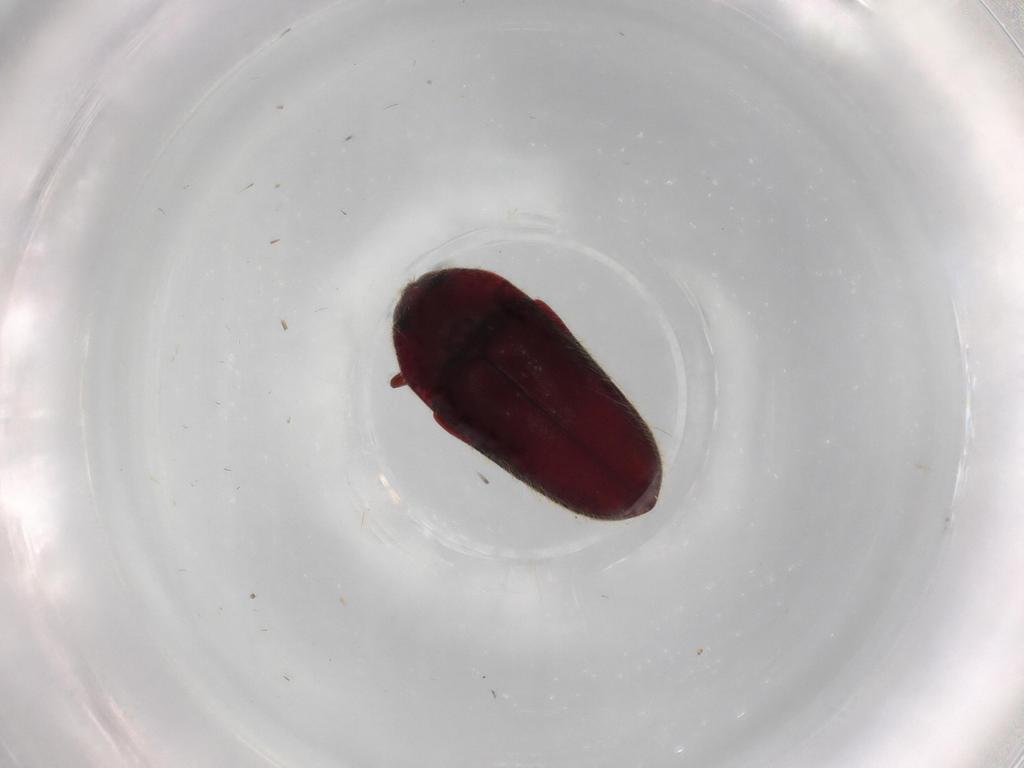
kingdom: Animalia
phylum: Arthropoda
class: Insecta
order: Coleoptera
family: Throscidae
